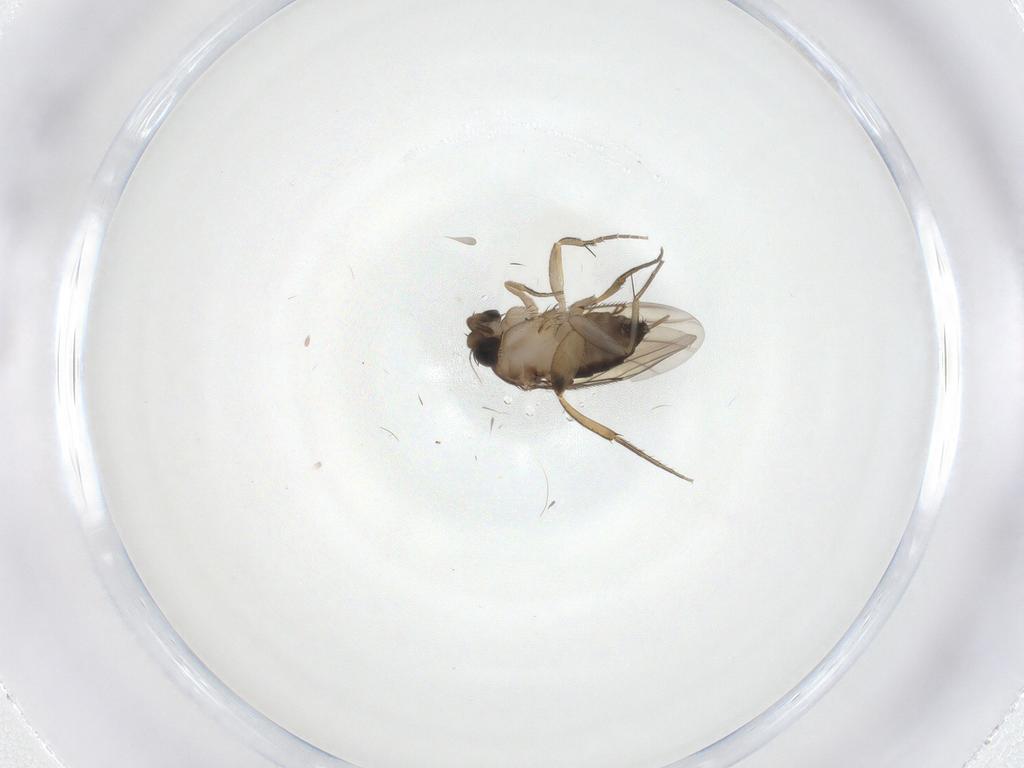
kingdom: Animalia
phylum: Arthropoda
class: Insecta
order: Diptera
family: Phoridae
